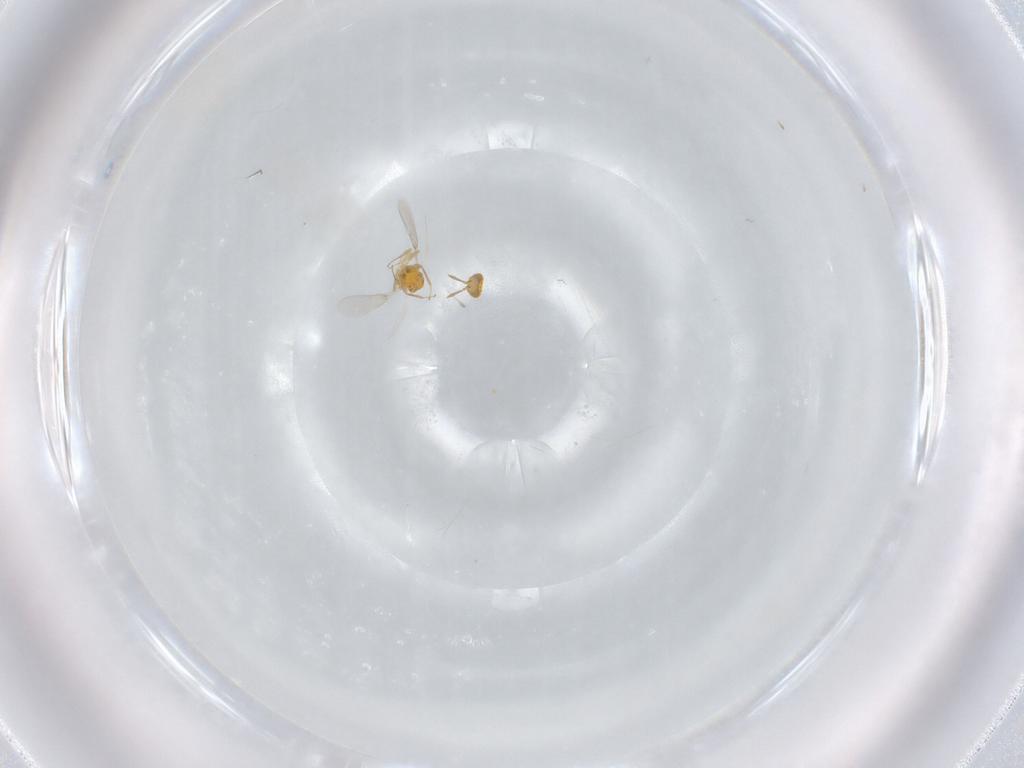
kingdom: Animalia
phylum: Arthropoda
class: Insecta
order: Hymenoptera
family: Aphelinidae
